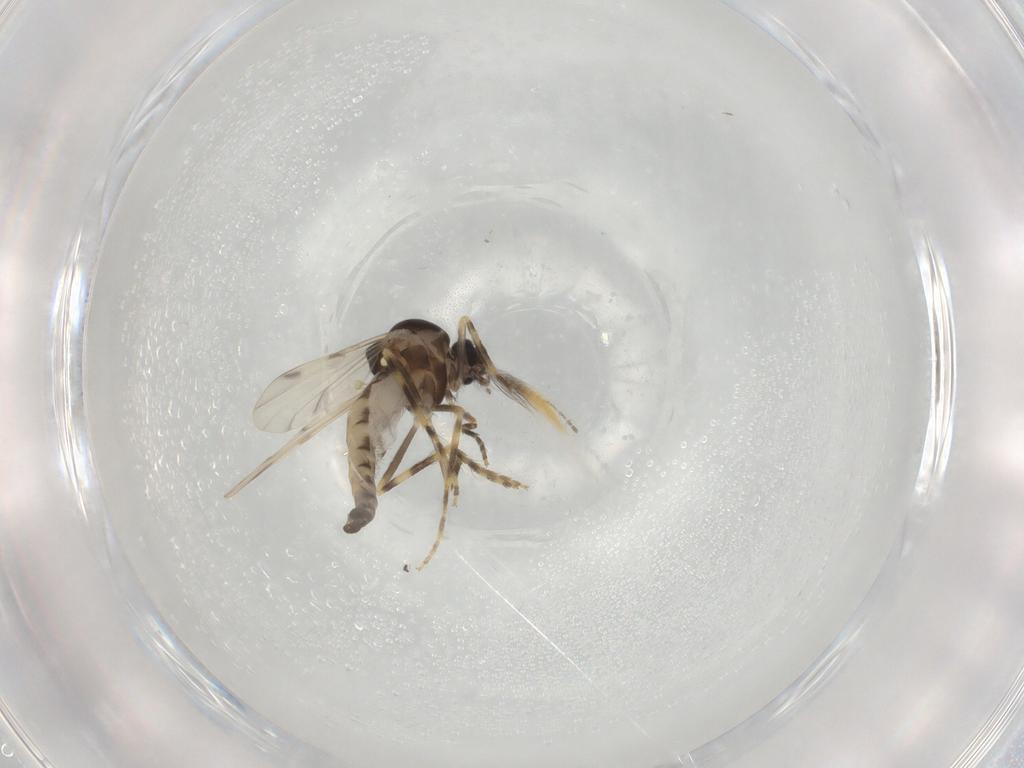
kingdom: Animalia
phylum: Arthropoda
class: Insecta
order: Diptera
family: Ceratopogonidae
